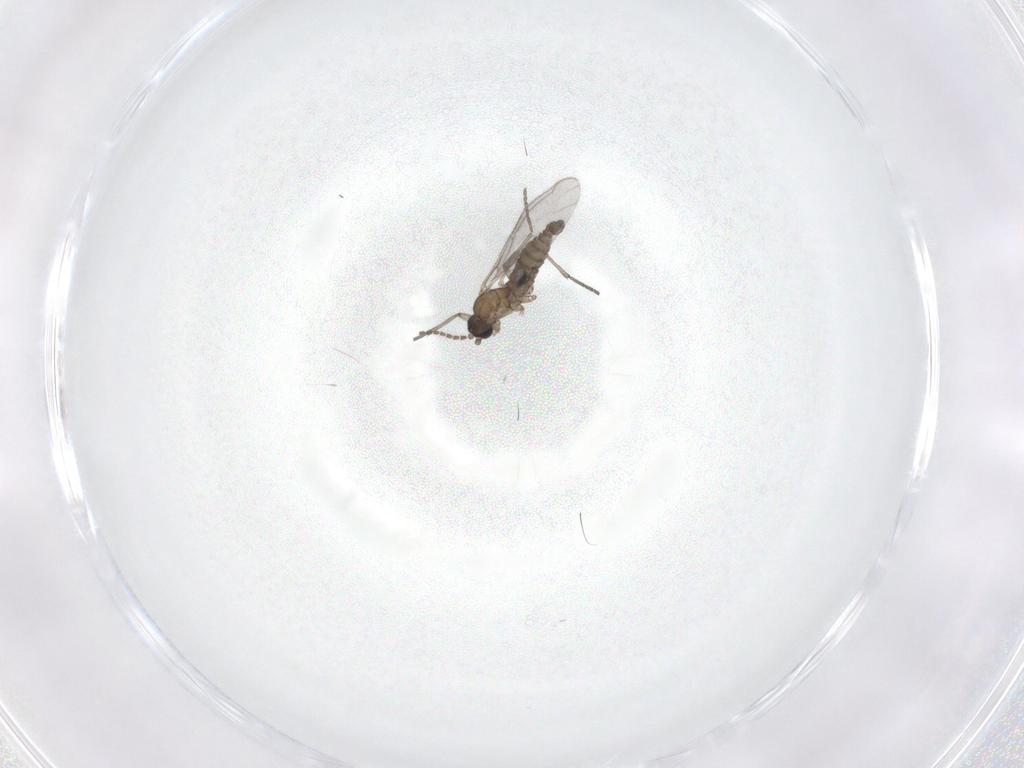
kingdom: Animalia
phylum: Arthropoda
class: Insecta
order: Diptera
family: Sciaridae
